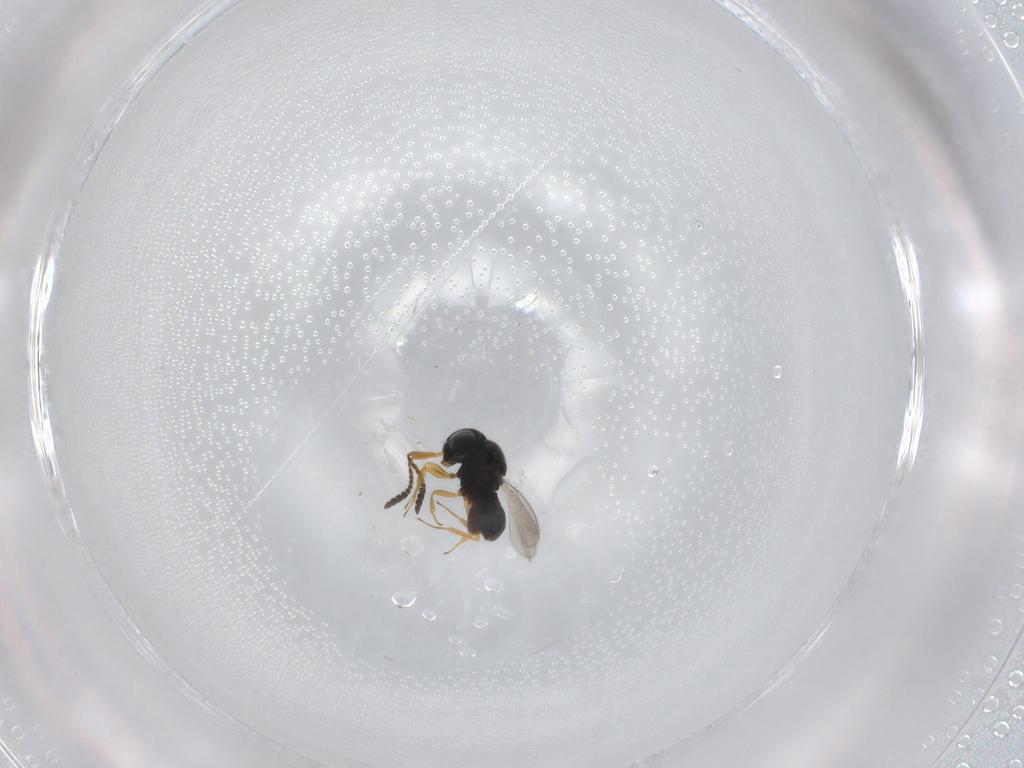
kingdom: Animalia
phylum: Arthropoda
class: Insecta
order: Hymenoptera
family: Scelionidae
